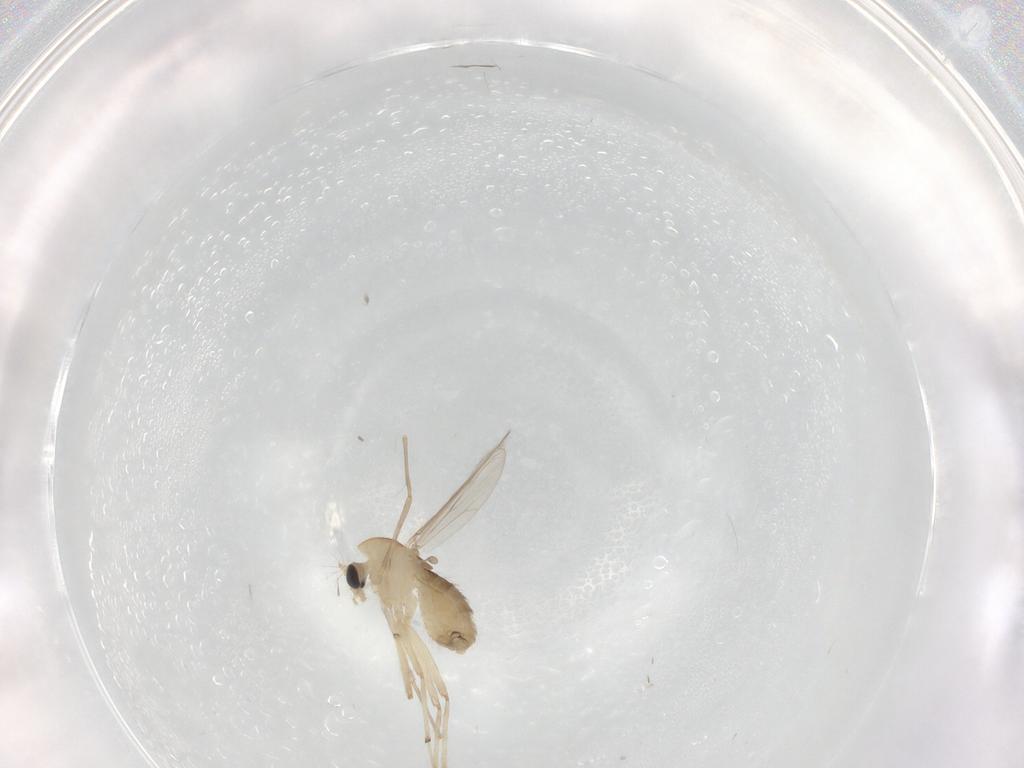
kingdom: Animalia
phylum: Arthropoda
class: Insecta
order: Diptera
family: Chironomidae
